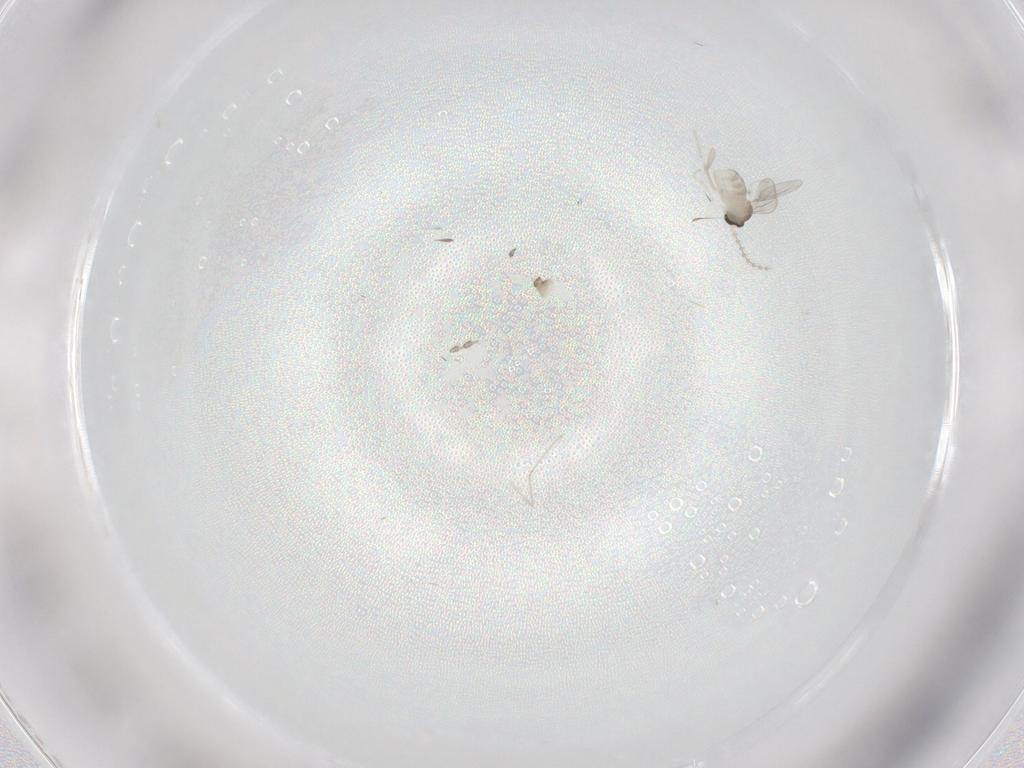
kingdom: Animalia
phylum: Arthropoda
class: Insecta
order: Diptera
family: Cecidomyiidae
